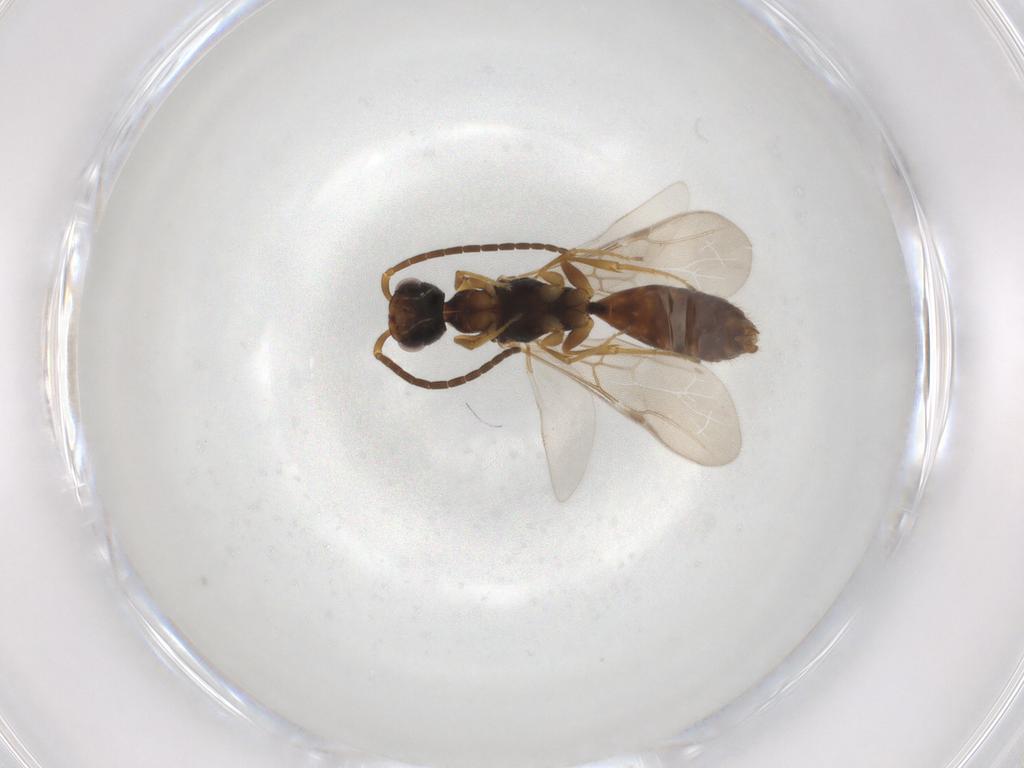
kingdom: Animalia
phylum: Arthropoda
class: Insecta
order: Hymenoptera
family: Bethylidae
